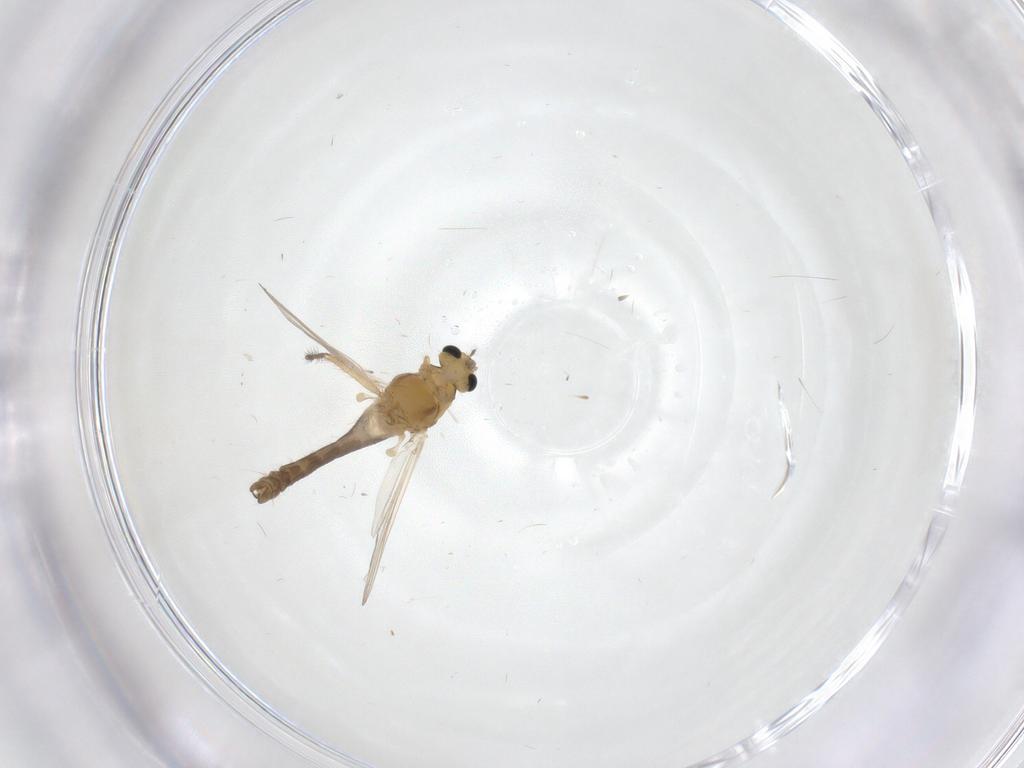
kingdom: Animalia
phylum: Arthropoda
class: Insecta
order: Diptera
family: Chironomidae
